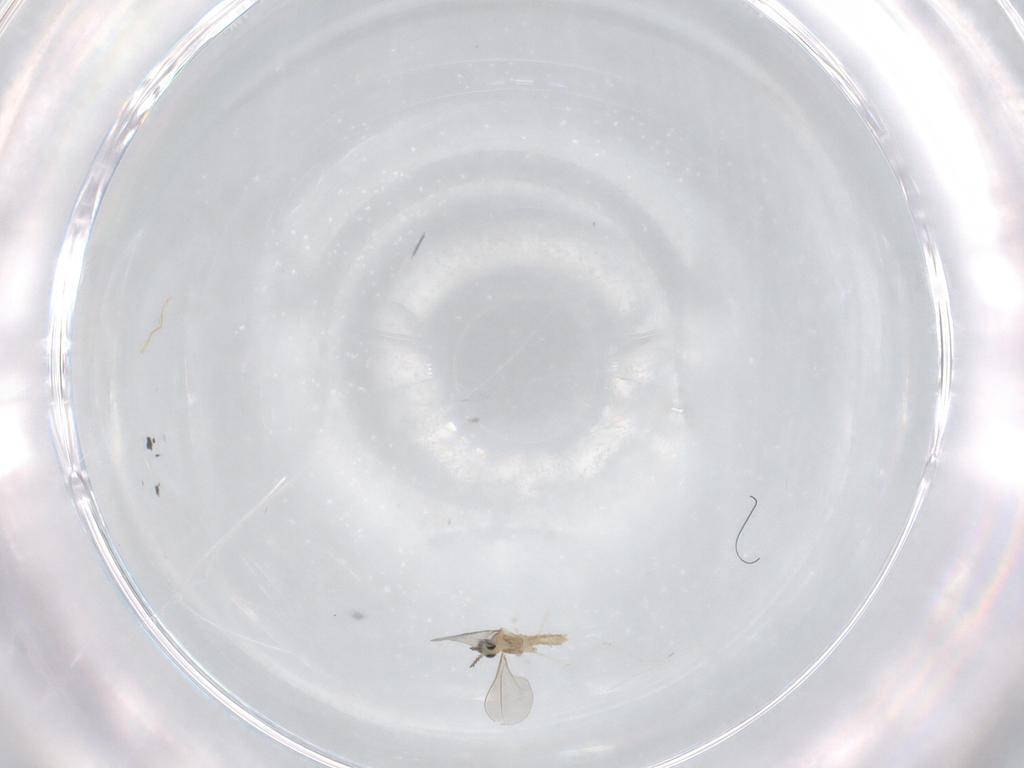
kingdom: Animalia
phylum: Arthropoda
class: Insecta
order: Diptera
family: Cecidomyiidae
